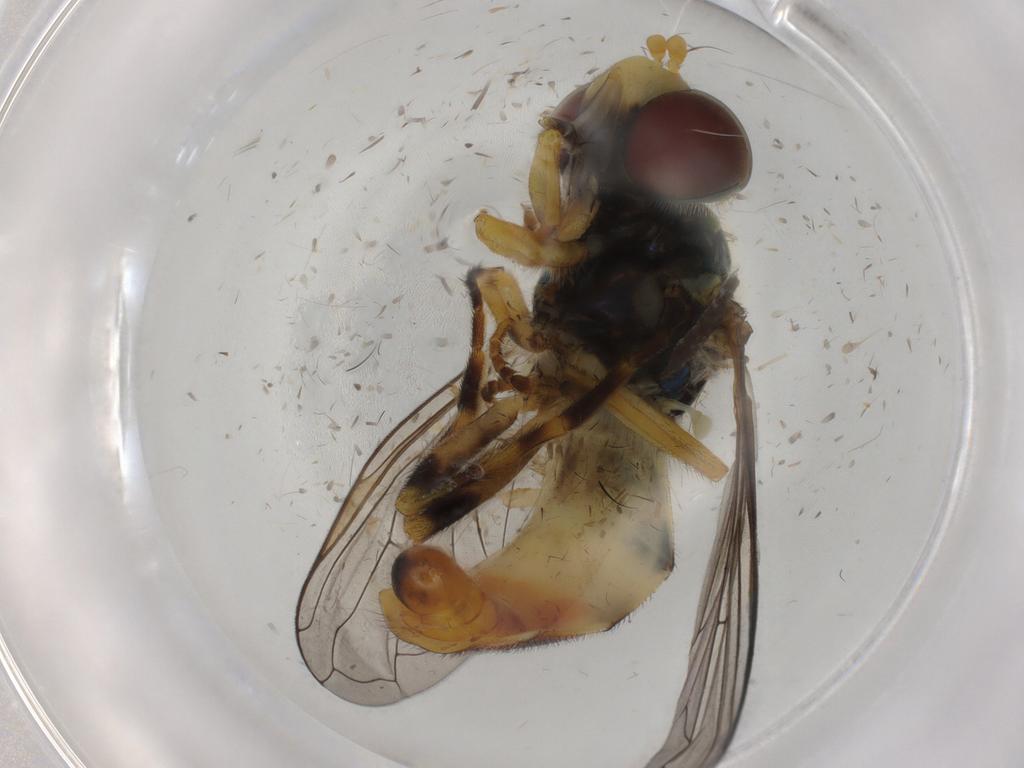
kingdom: Animalia
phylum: Arthropoda
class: Insecta
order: Diptera
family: Syrphidae
